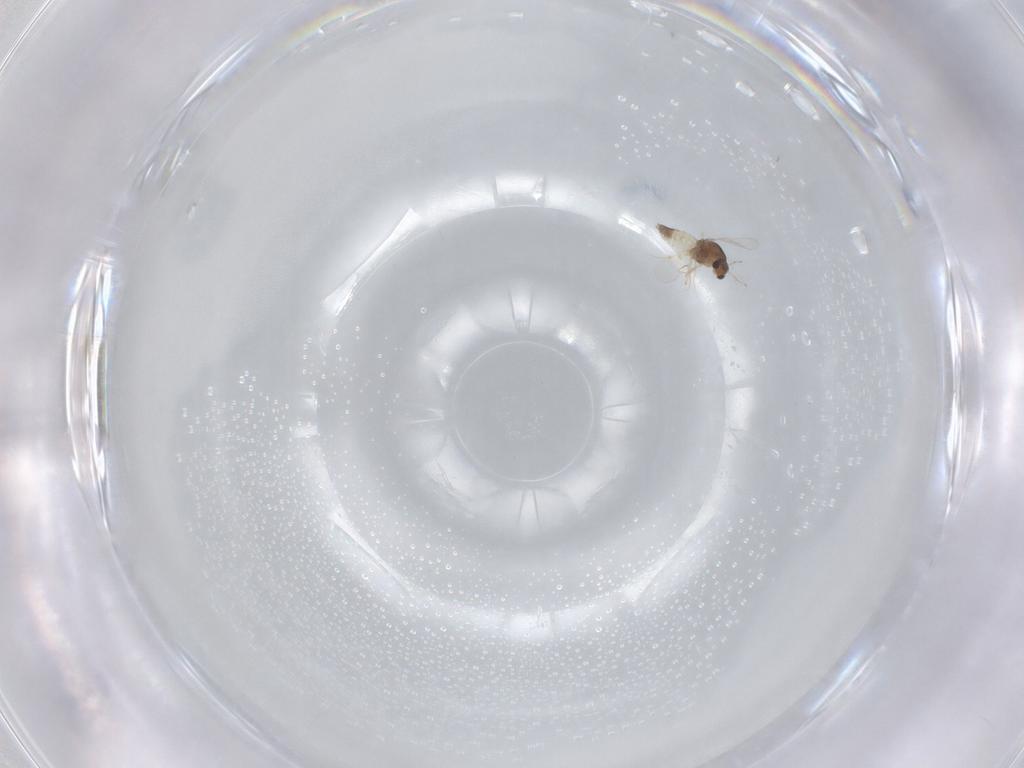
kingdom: Animalia
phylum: Arthropoda
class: Insecta
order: Diptera
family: Chironomidae
